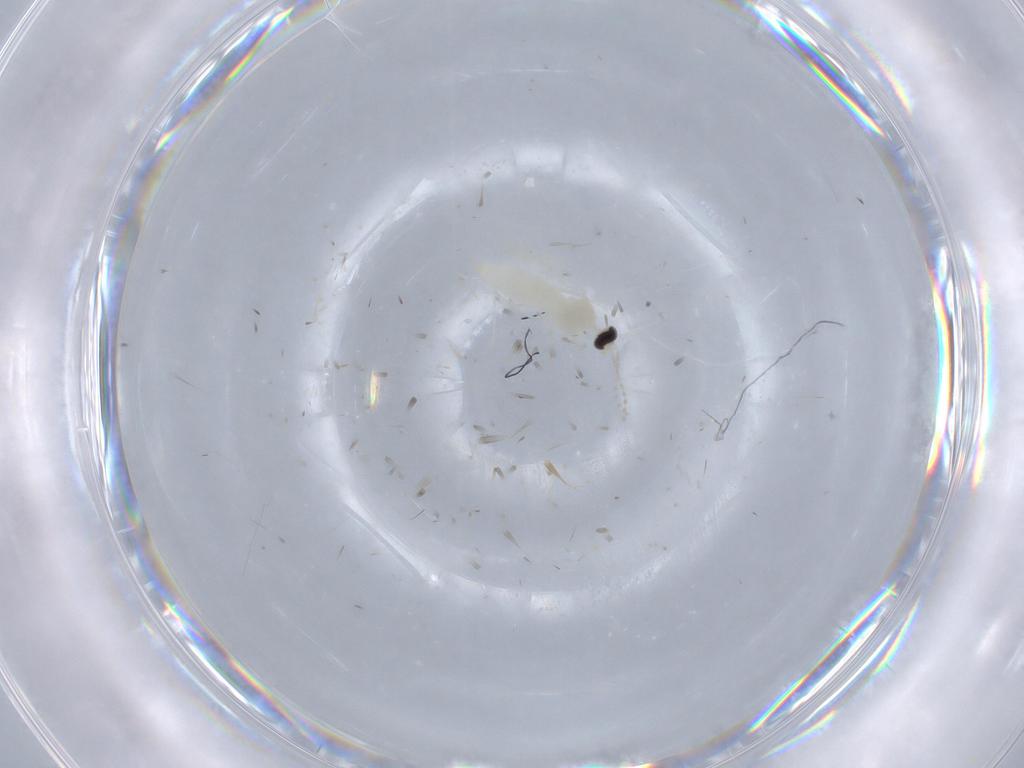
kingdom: Animalia
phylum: Arthropoda
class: Insecta
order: Diptera
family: Cecidomyiidae
